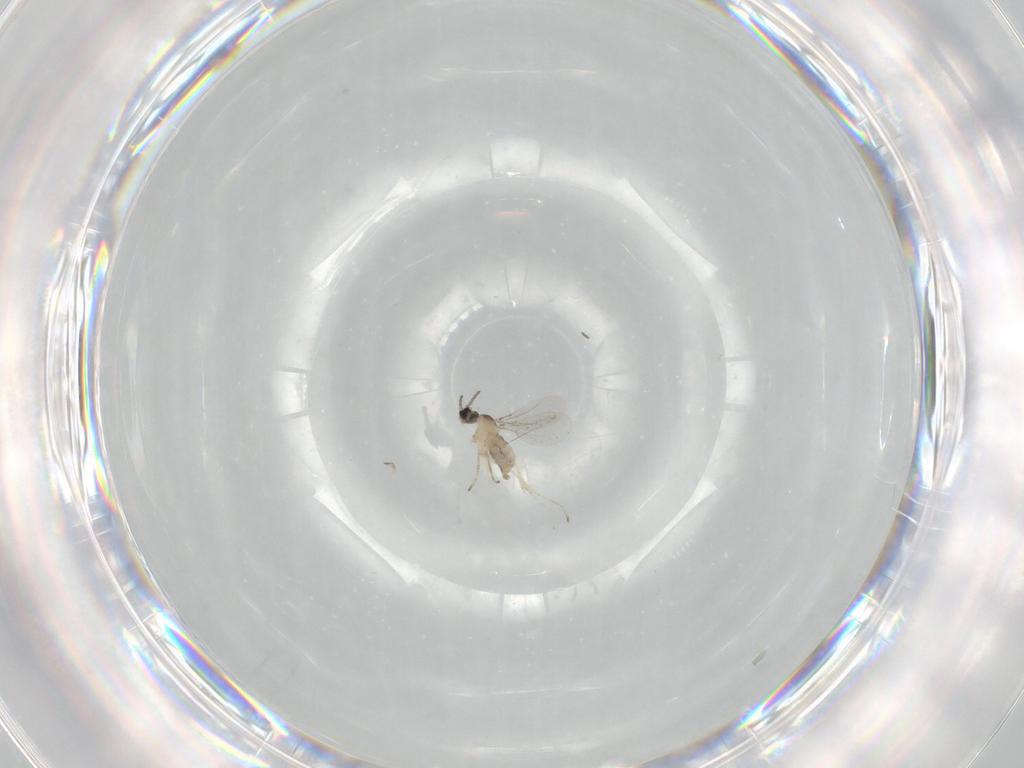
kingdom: Animalia
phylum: Arthropoda
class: Insecta
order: Diptera
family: Cecidomyiidae
